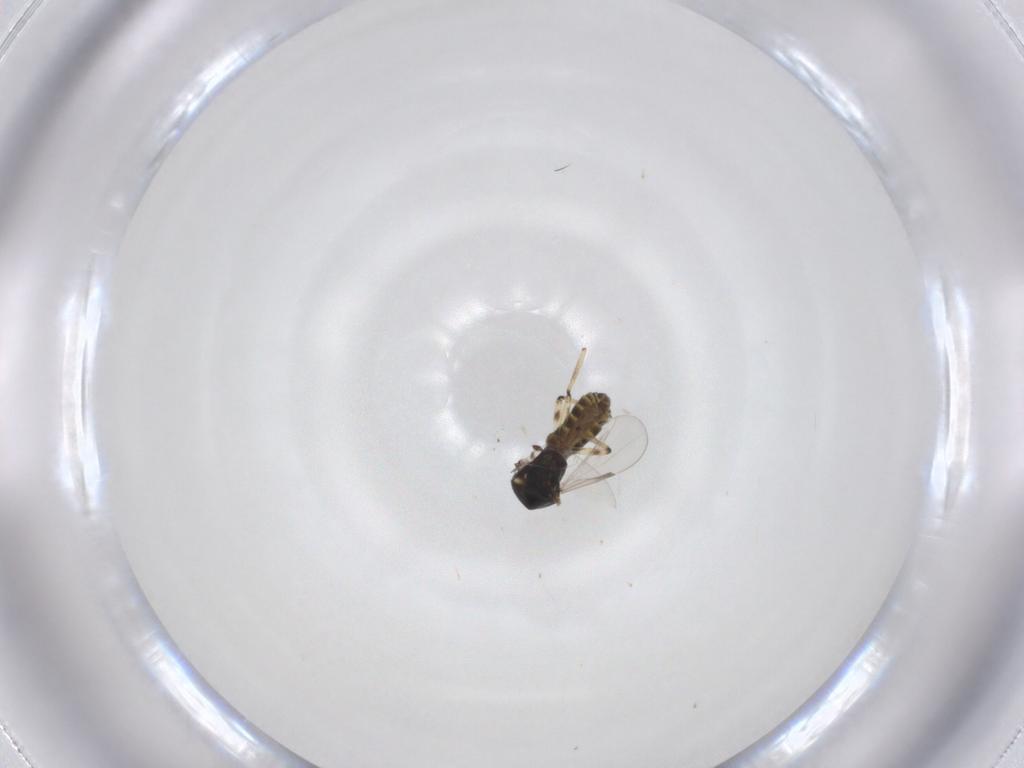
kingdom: Animalia
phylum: Arthropoda
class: Insecta
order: Diptera
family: Ceratopogonidae
